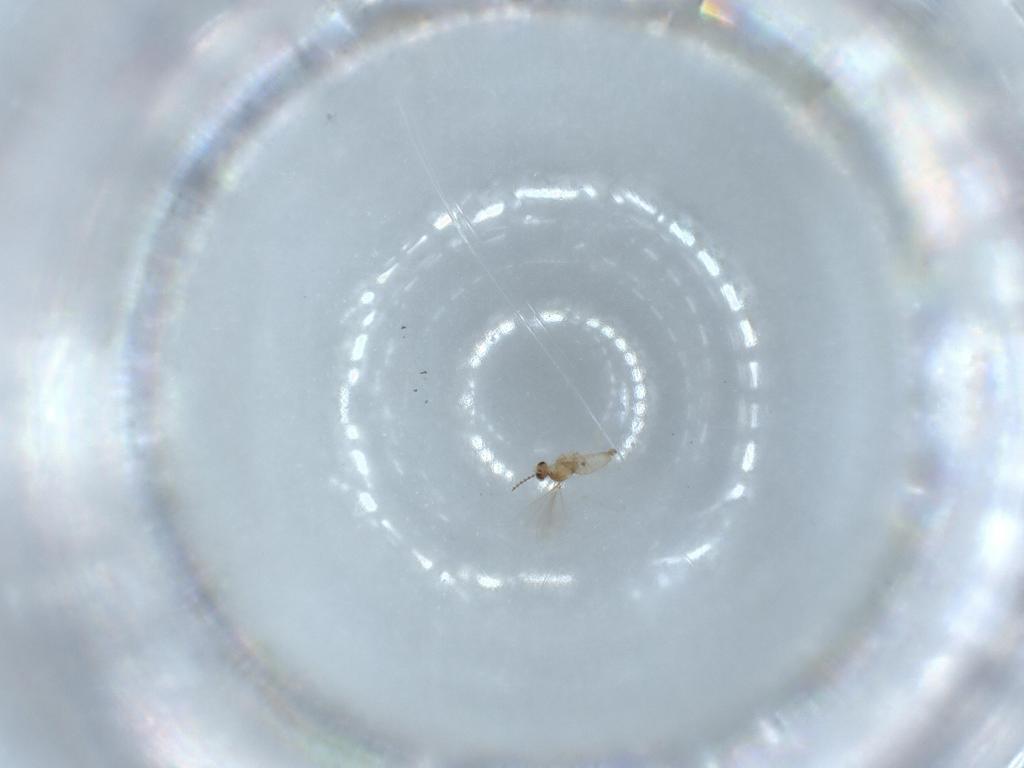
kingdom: Animalia
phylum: Arthropoda
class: Insecta
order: Diptera
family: Cecidomyiidae
